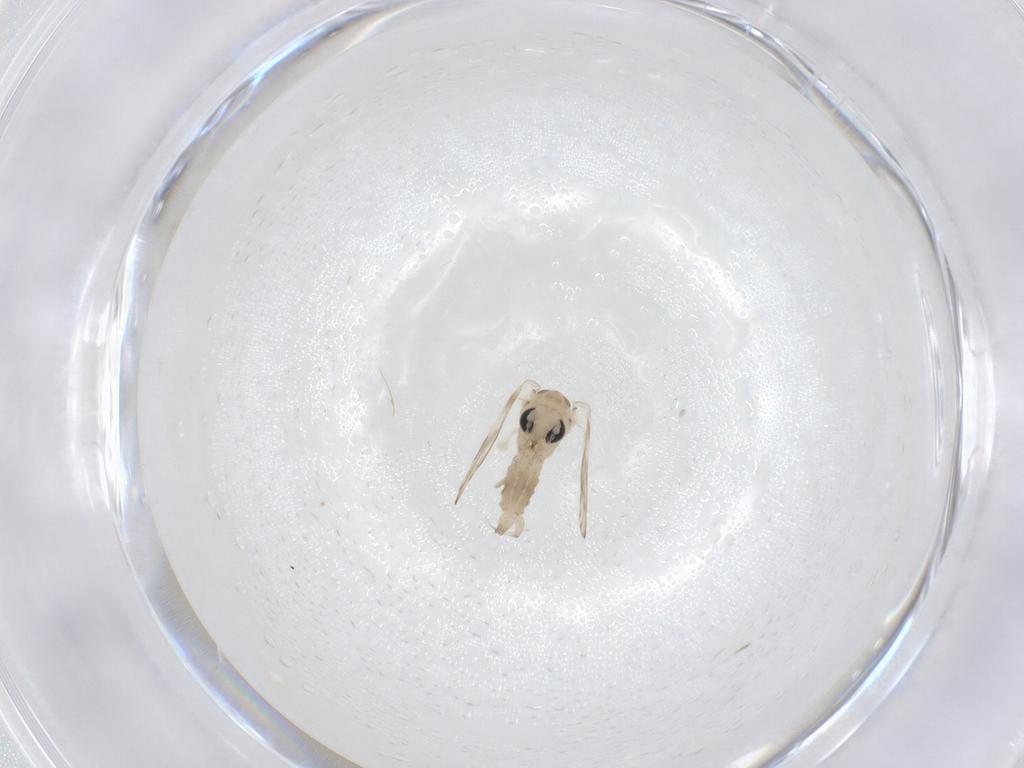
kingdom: Animalia
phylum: Arthropoda
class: Insecta
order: Diptera
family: Psychodidae
